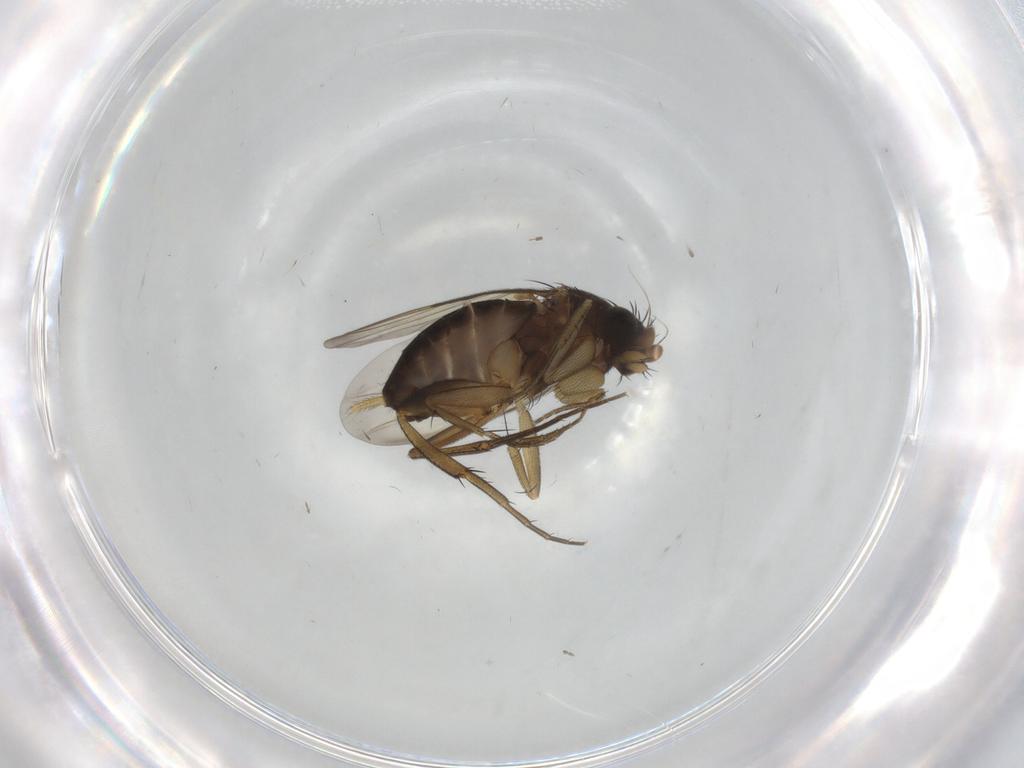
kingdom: Animalia
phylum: Arthropoda
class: Insecta
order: Diptera
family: Phoridae
